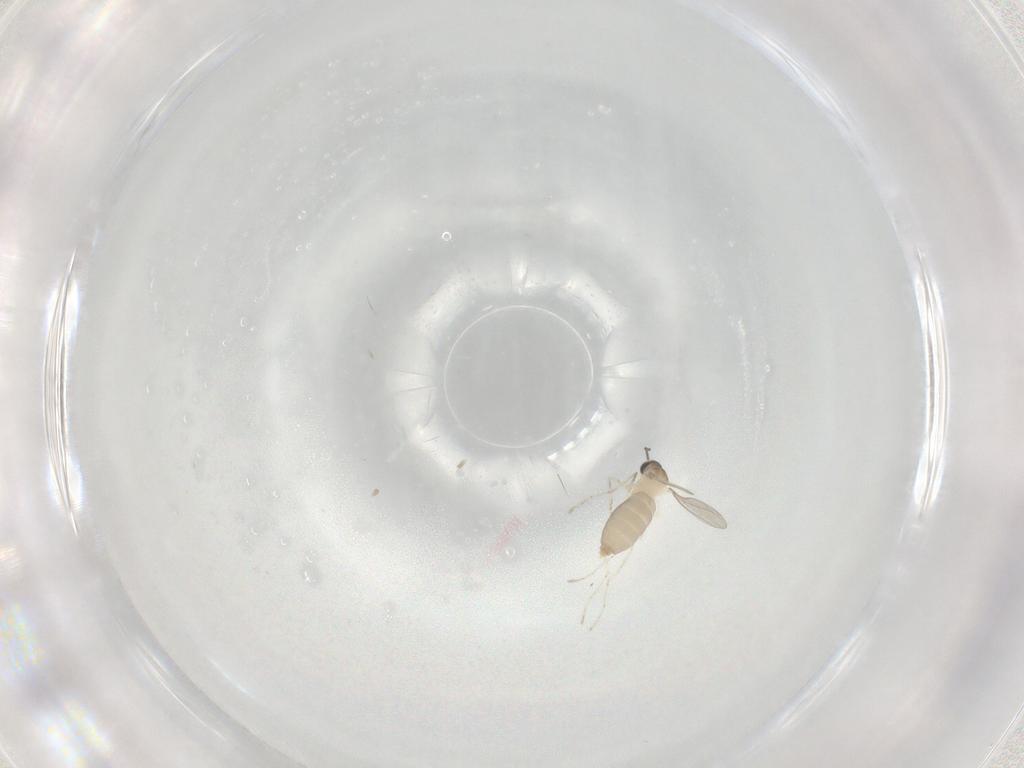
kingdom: Animalia
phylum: Arthropoda
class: Insecta
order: Diptera
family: Cecidomyiidae
